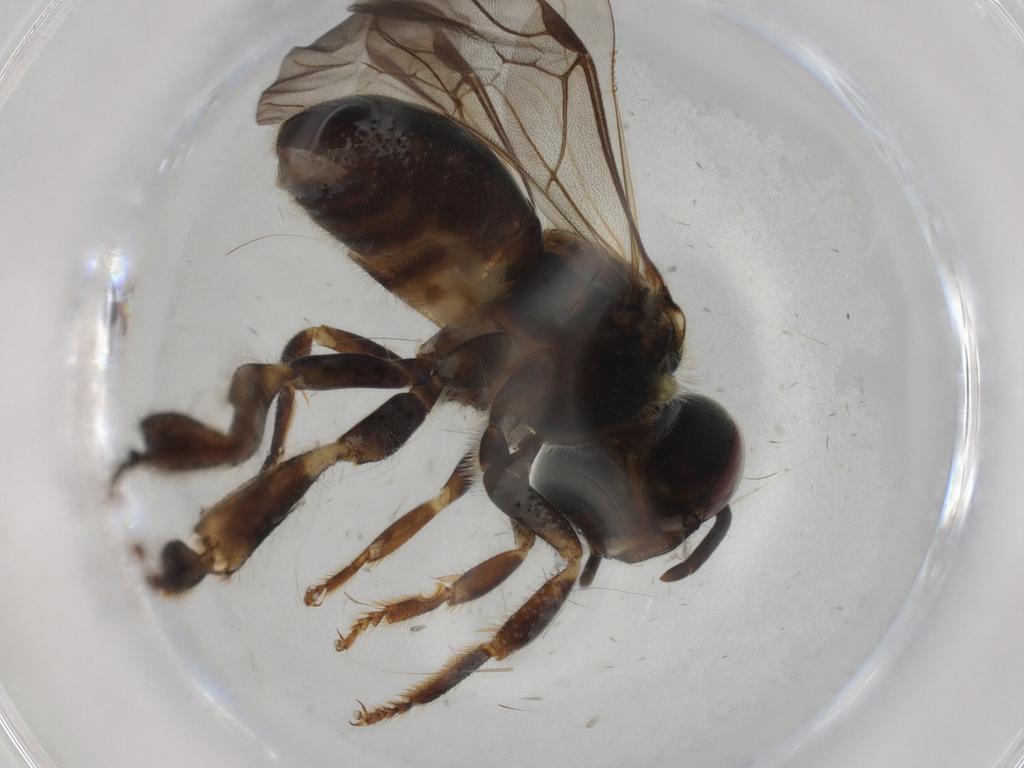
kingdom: Animalia
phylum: Arthropoda
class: Insecta
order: Hymenoptera
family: Apidae
